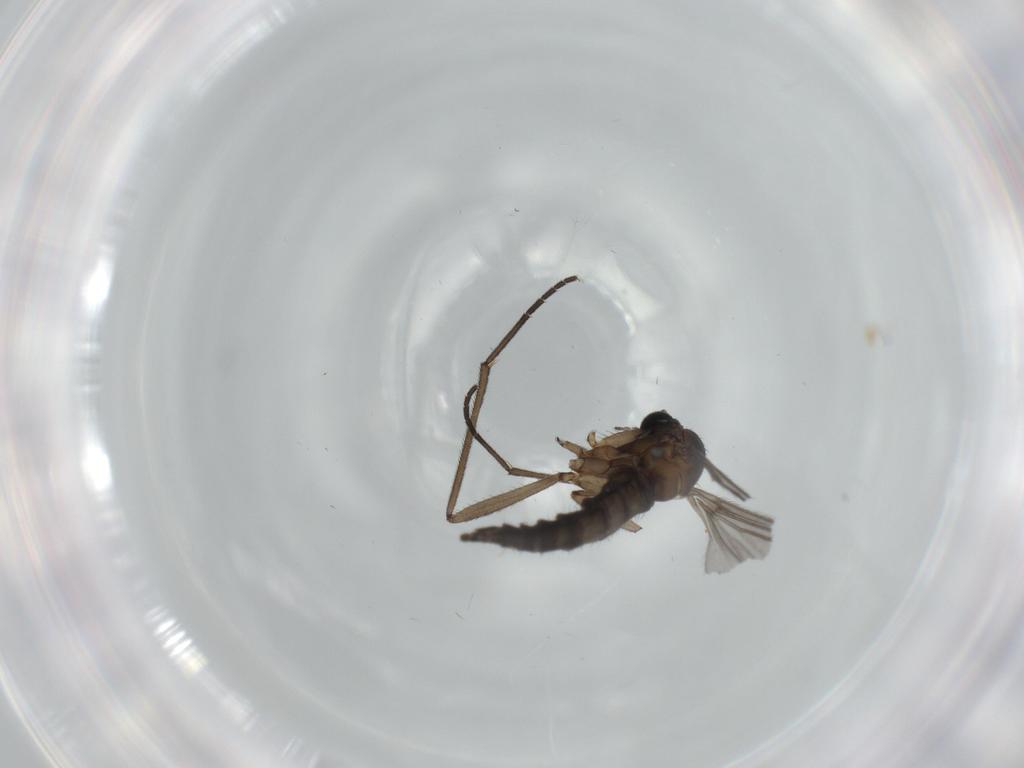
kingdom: Animalia
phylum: Arthropoda
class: Insecta
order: Diptera
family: Sciaridae
